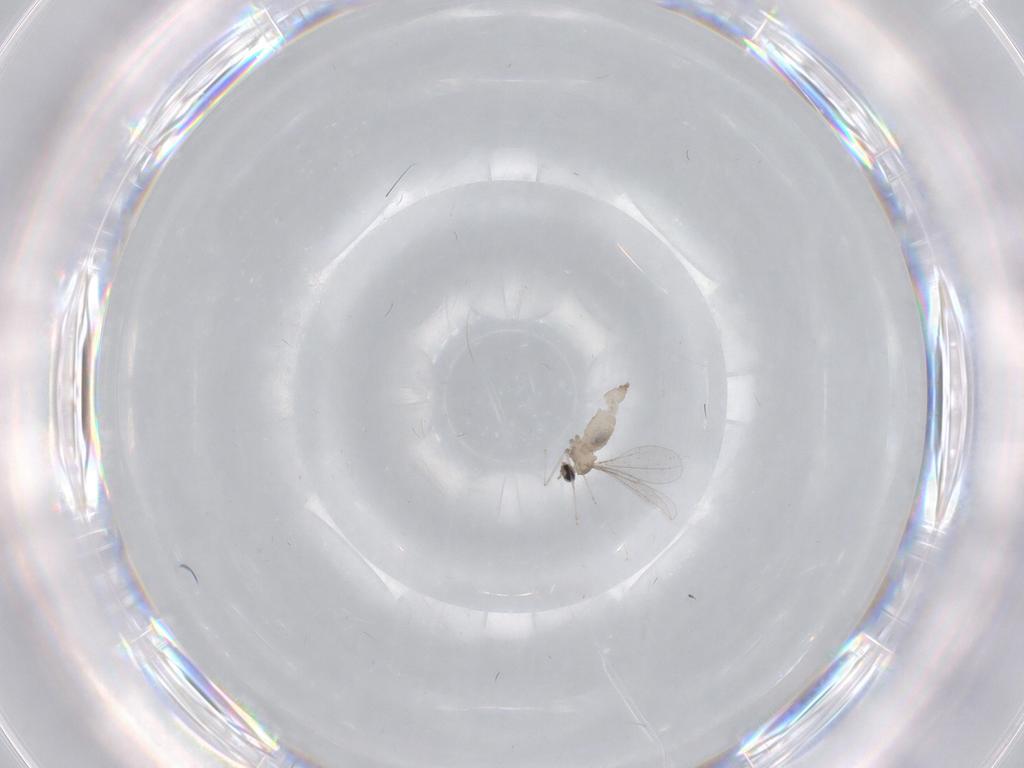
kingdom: Animalia
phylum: Arthropoda
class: Insecta
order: Diptera
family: Cecidomyiidae
